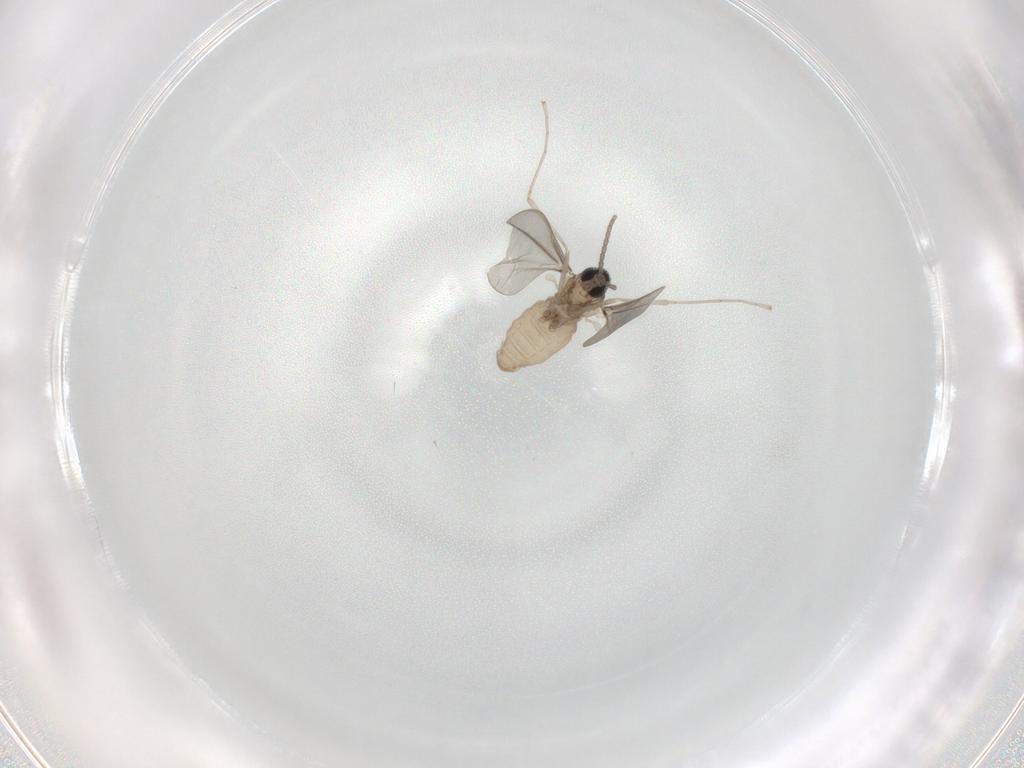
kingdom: Animalia
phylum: Arthropoda
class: Insecta
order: Diptera
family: Cecidomyiidae
